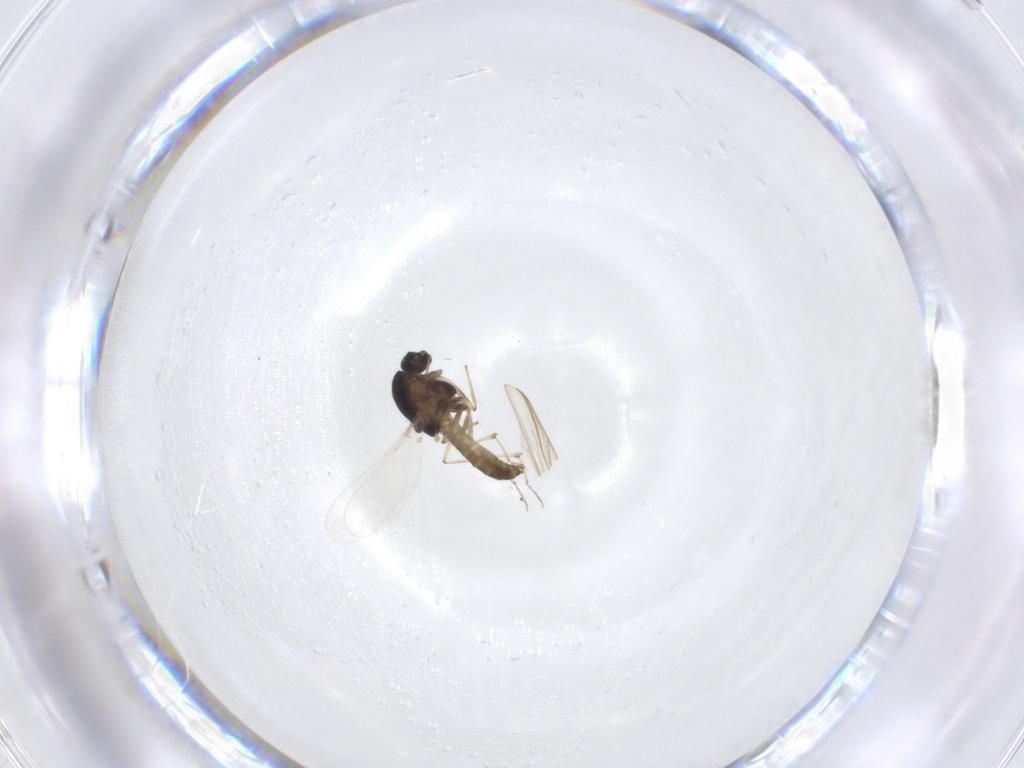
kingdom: Animalia
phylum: Arthropoda
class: Insecta
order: Diptera
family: Chironomidae
